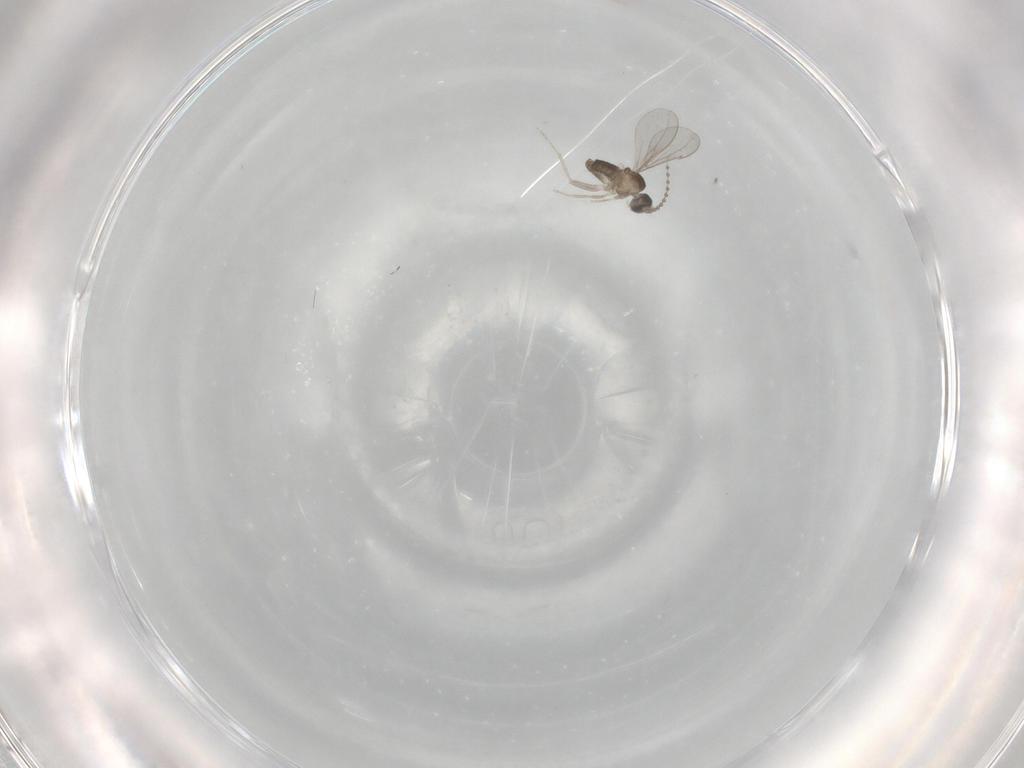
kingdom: Animalia
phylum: Arthropoda
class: Insecta
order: Diptera
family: Cecidomyiidae
